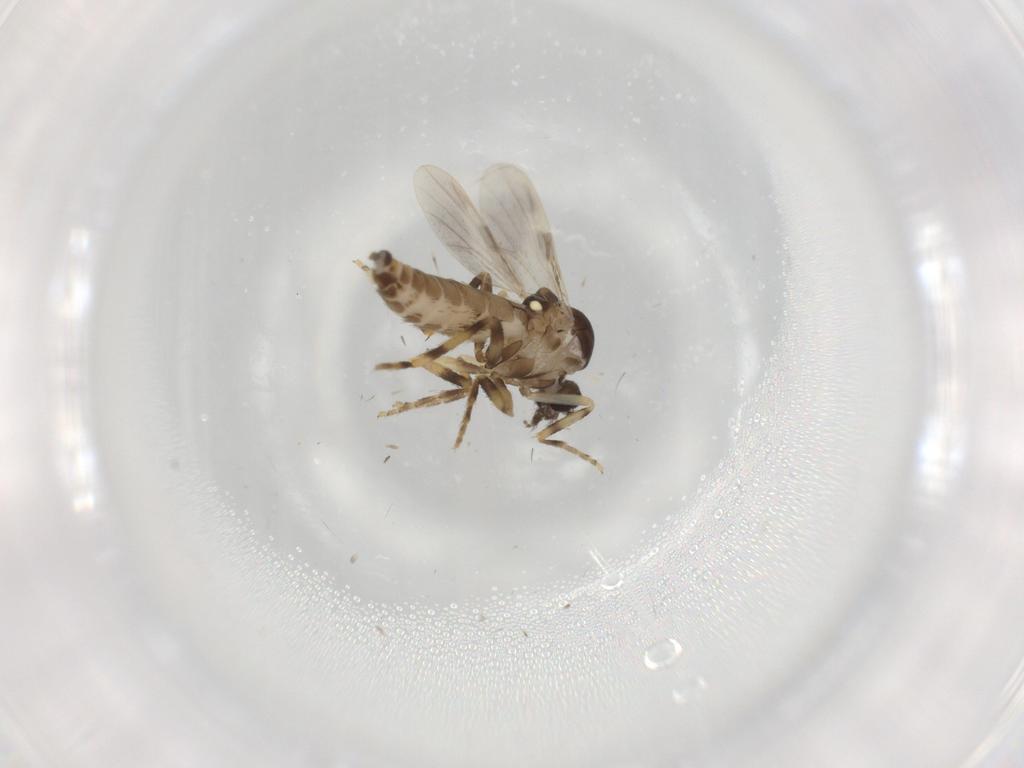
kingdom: Animalia
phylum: Arthropoda
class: Insecta
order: Diptera
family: Ceratopogonidae
